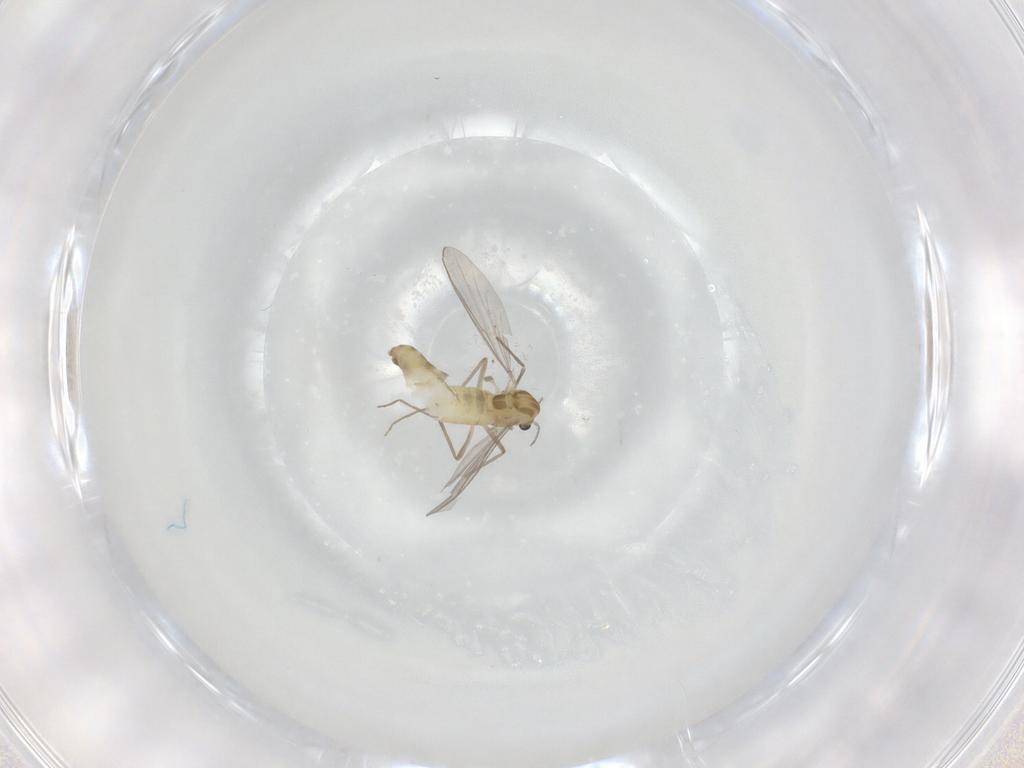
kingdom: Animalia
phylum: Arthropoda
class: Insecta
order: Diptera
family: Chironomidae
